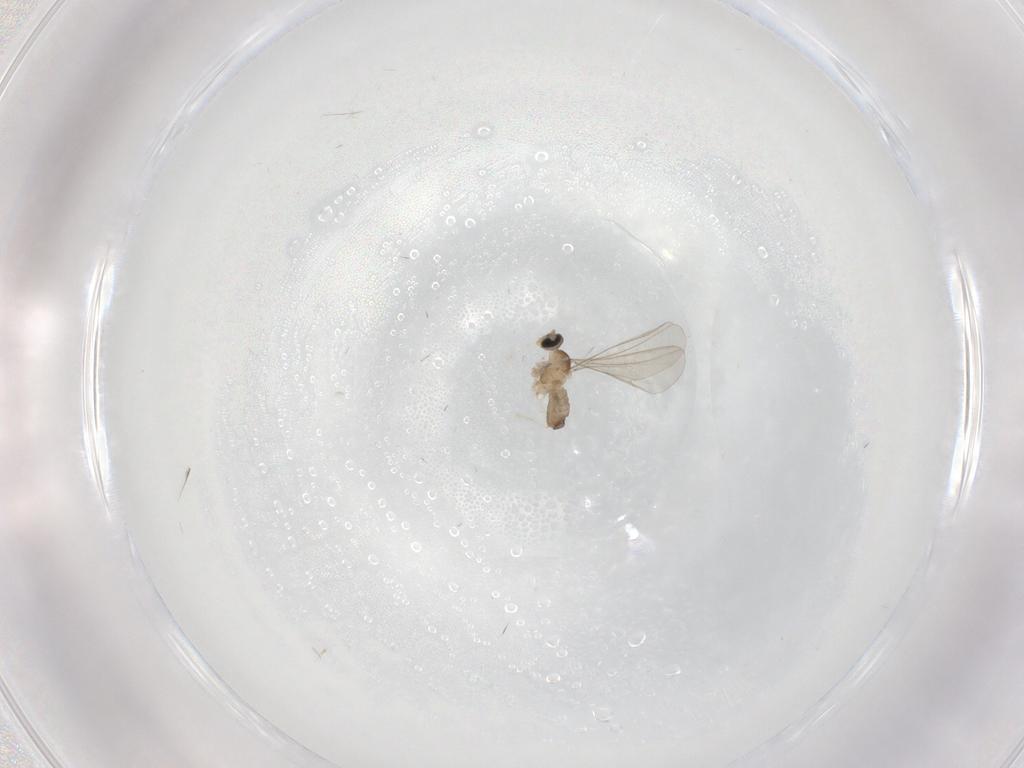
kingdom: Animalia
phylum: Arthropoda
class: Insecta
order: Diptera
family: Cecidomyiidae
